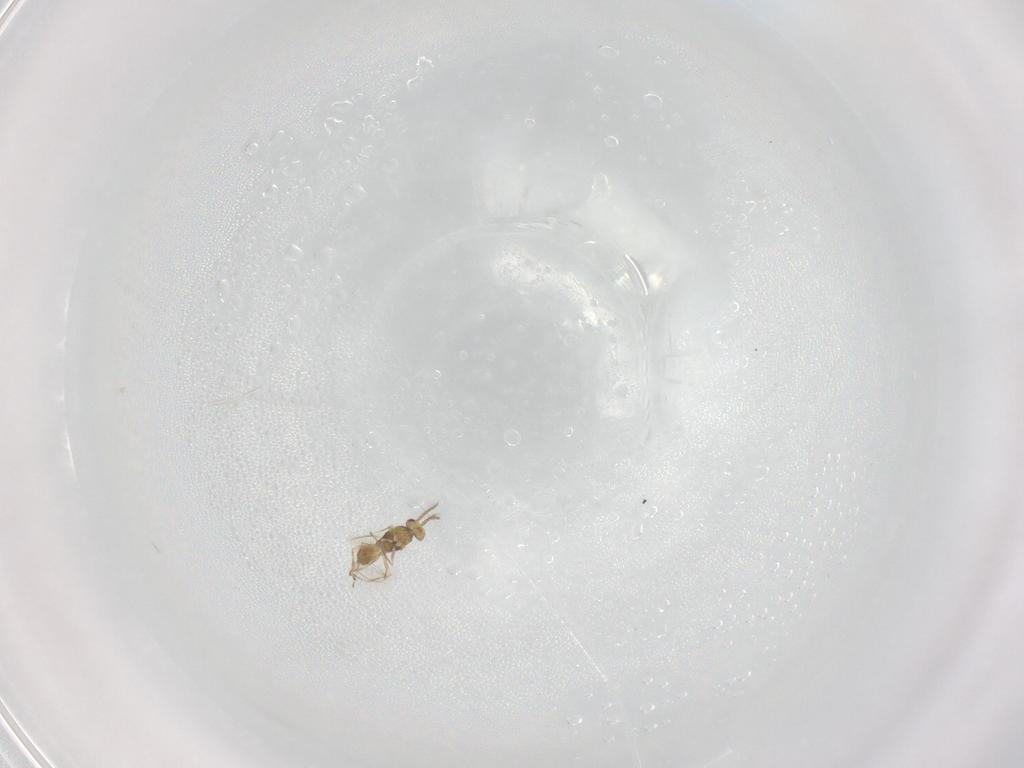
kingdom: Animalia
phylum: Arthropoda
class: Insecta
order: Hymenoptera
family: Eulophidae
